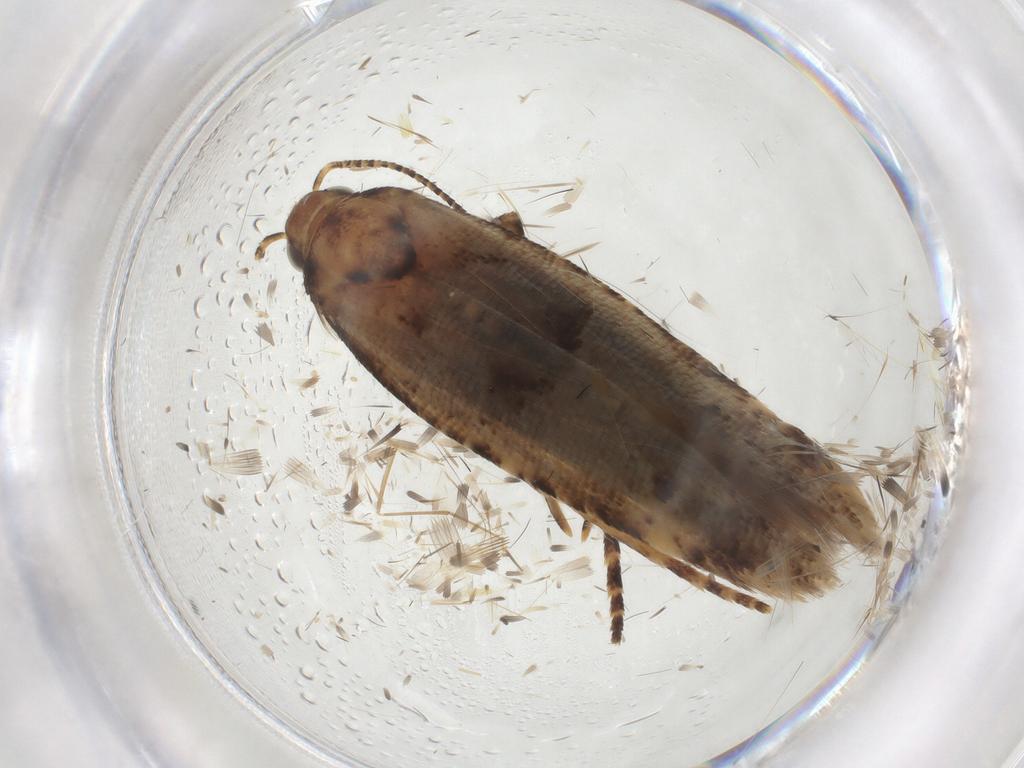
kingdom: Animalia
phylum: Arthropoda
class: Insecta
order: Lepidoptera
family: Gelechiidae
